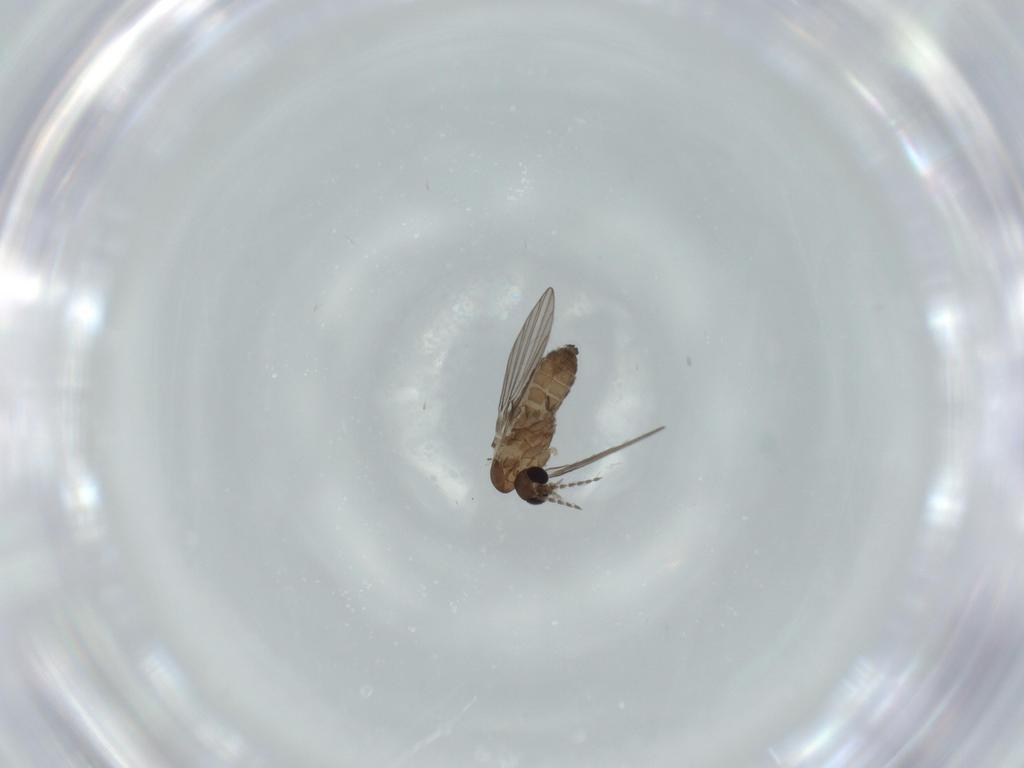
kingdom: Animalia
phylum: Arthropoda
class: Insecta
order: Diptera
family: Psychodidae
